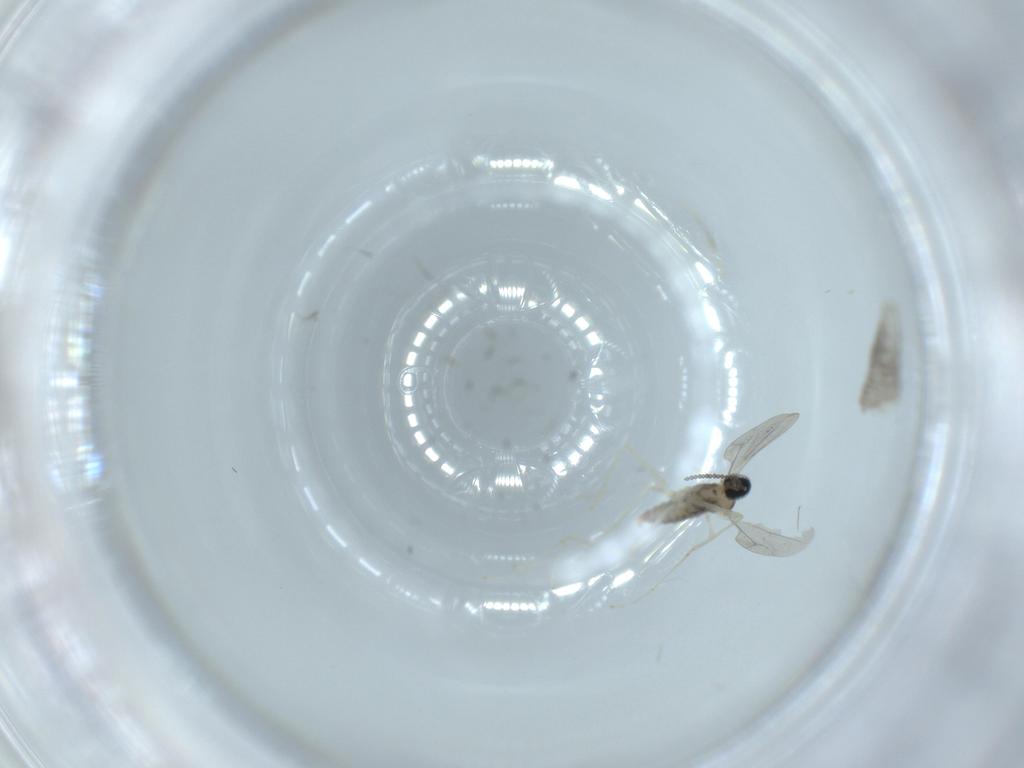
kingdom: Animalia
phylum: Arthropoda
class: Insecta
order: Diptera
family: Cecidomyiidae
